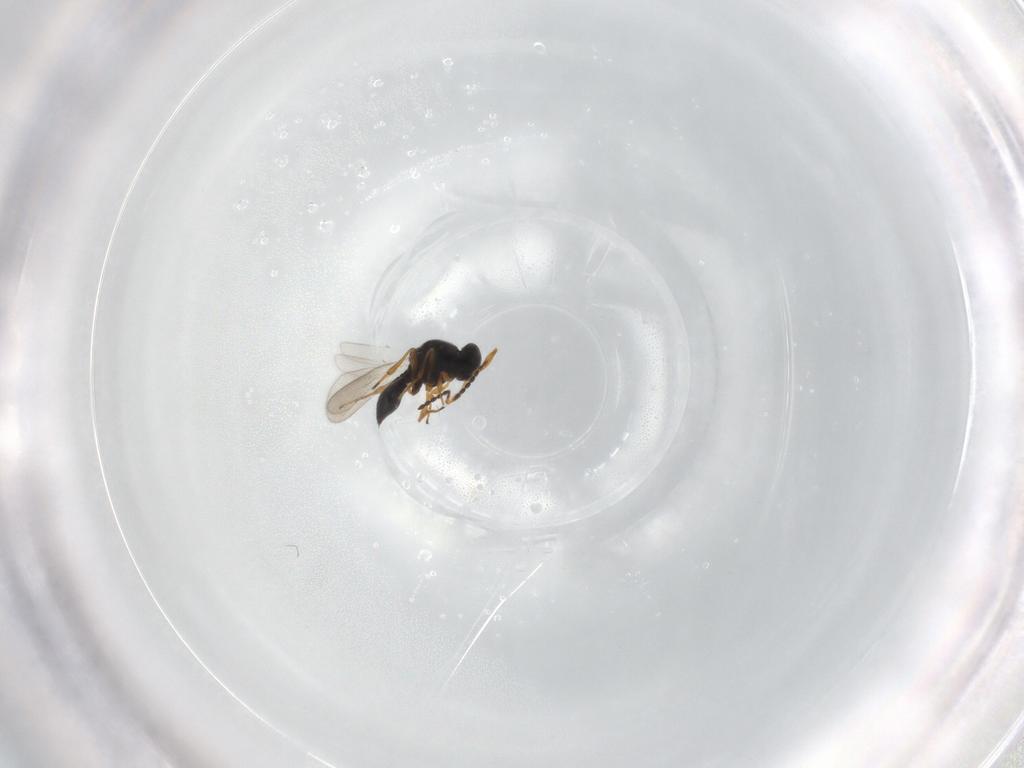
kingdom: Animalia
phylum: Arthropoda
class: Insecta
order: Hymenoptera
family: Platygastridae
